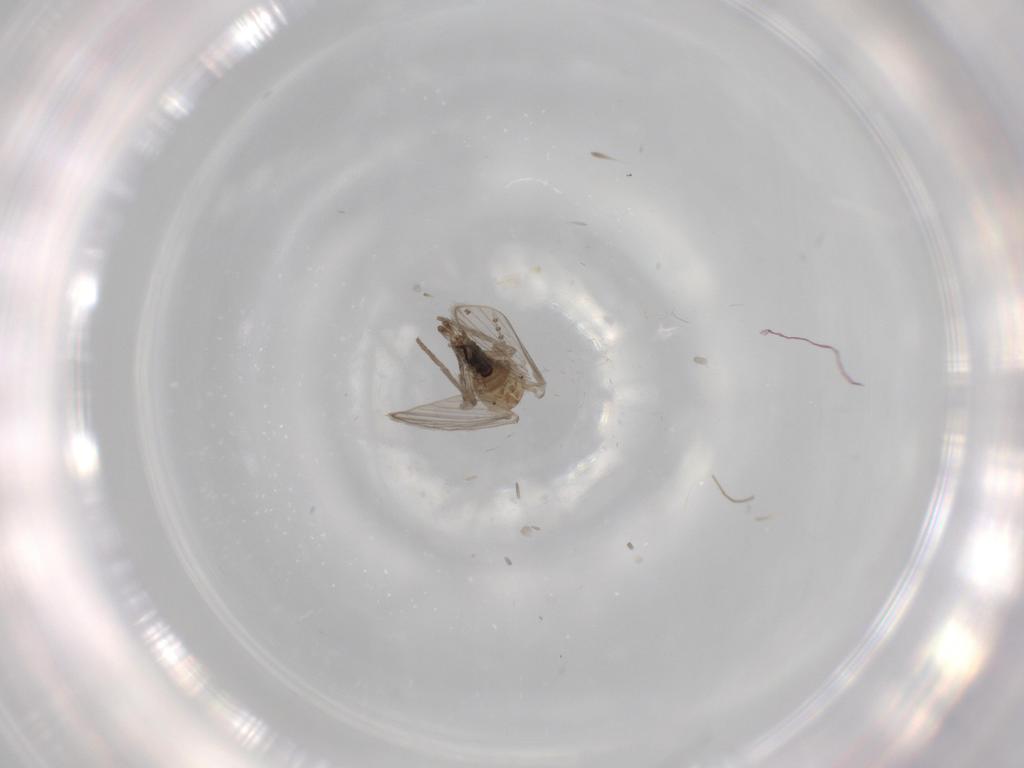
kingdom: Animalia
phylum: Arthropoda
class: Insecta
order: Diptera
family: Psychodidae
